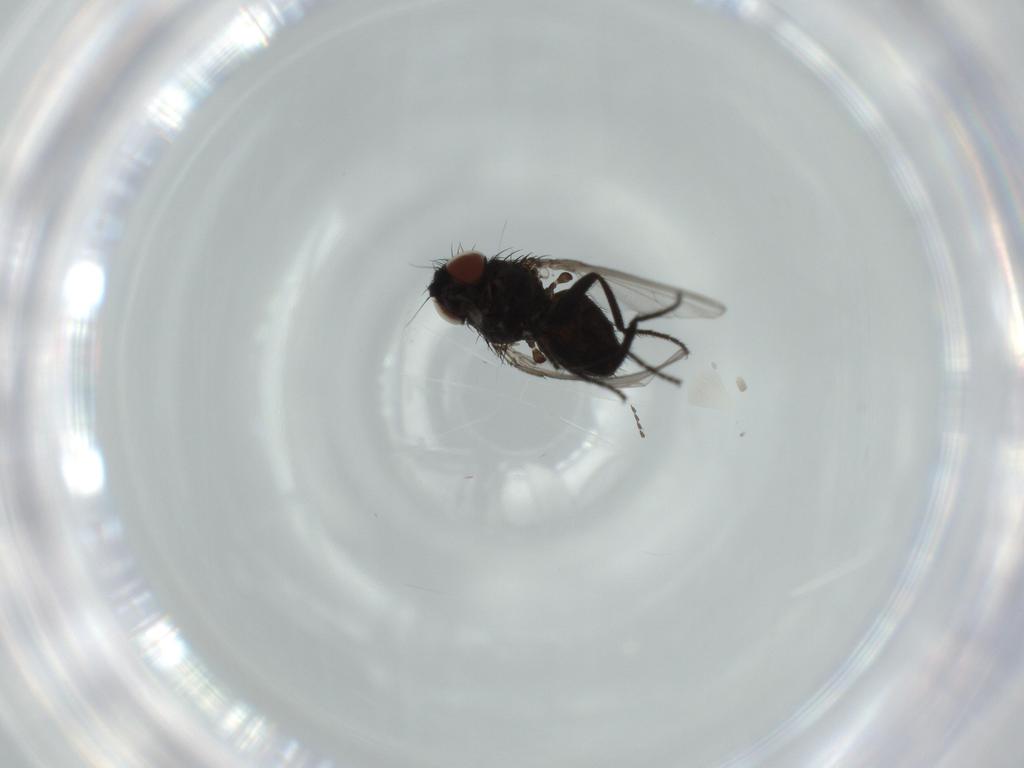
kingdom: Animalia
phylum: Arthropoda
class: Insecta
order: Diptera
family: Milichiidae
